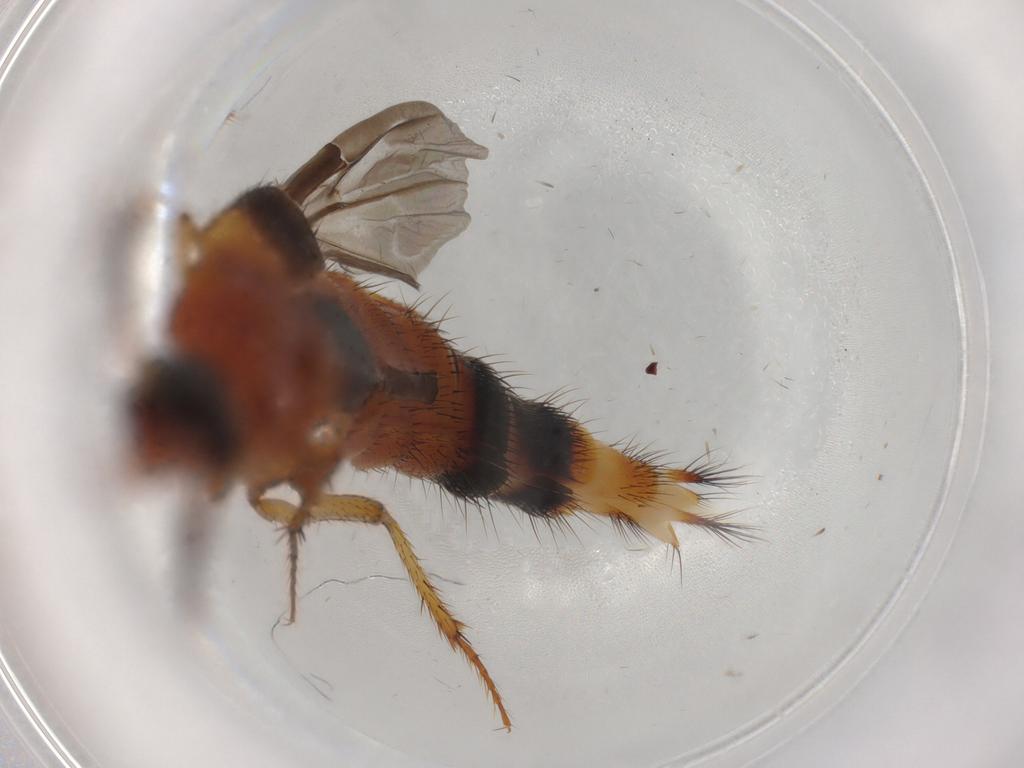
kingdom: Animalia
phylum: Arthropoda
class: Insecta
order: Coleoptera
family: Staphylinidae
